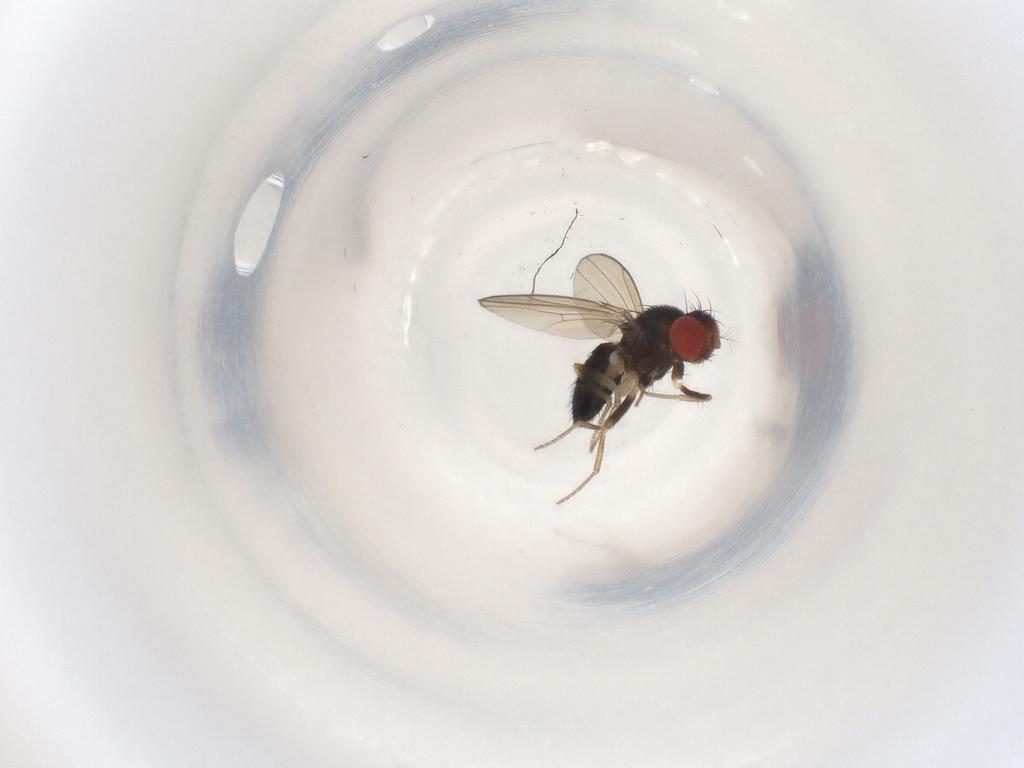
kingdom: Animalia
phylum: Arthropoda
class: Insecta
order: Diptera
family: Drosophilidae
